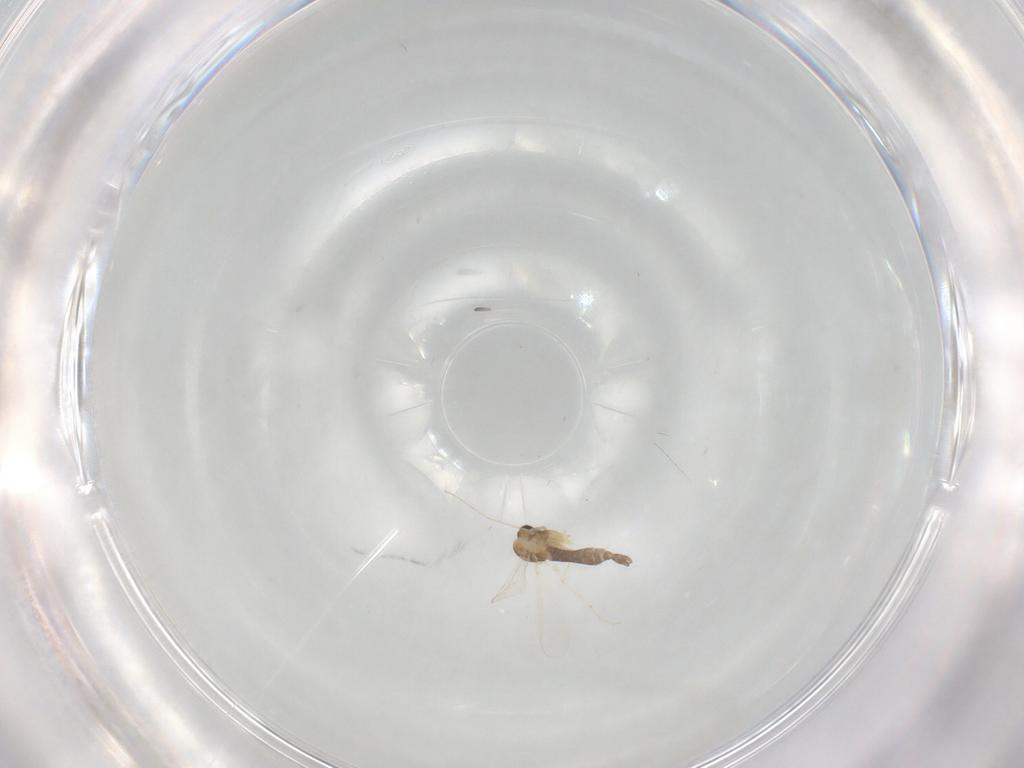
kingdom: Animalia
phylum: Arthropoda
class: Insecta
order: Diptera
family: Chironomidae
